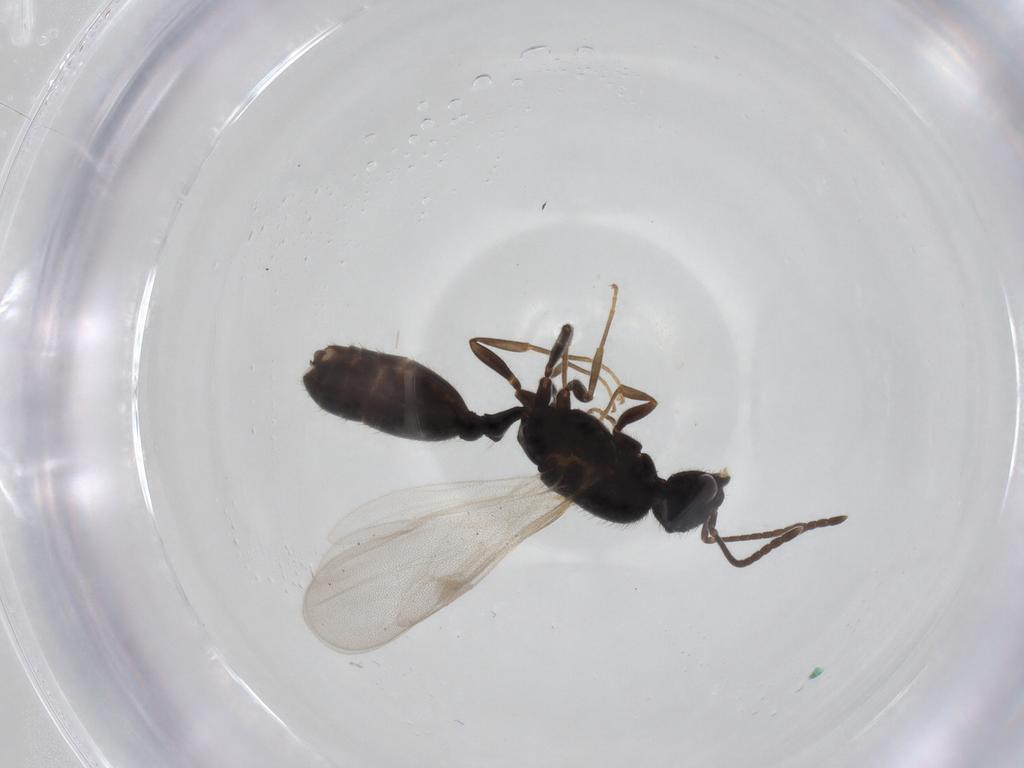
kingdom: Animalia
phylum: Arthropoda
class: Insecta
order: Hymenoptera
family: Formicidae
